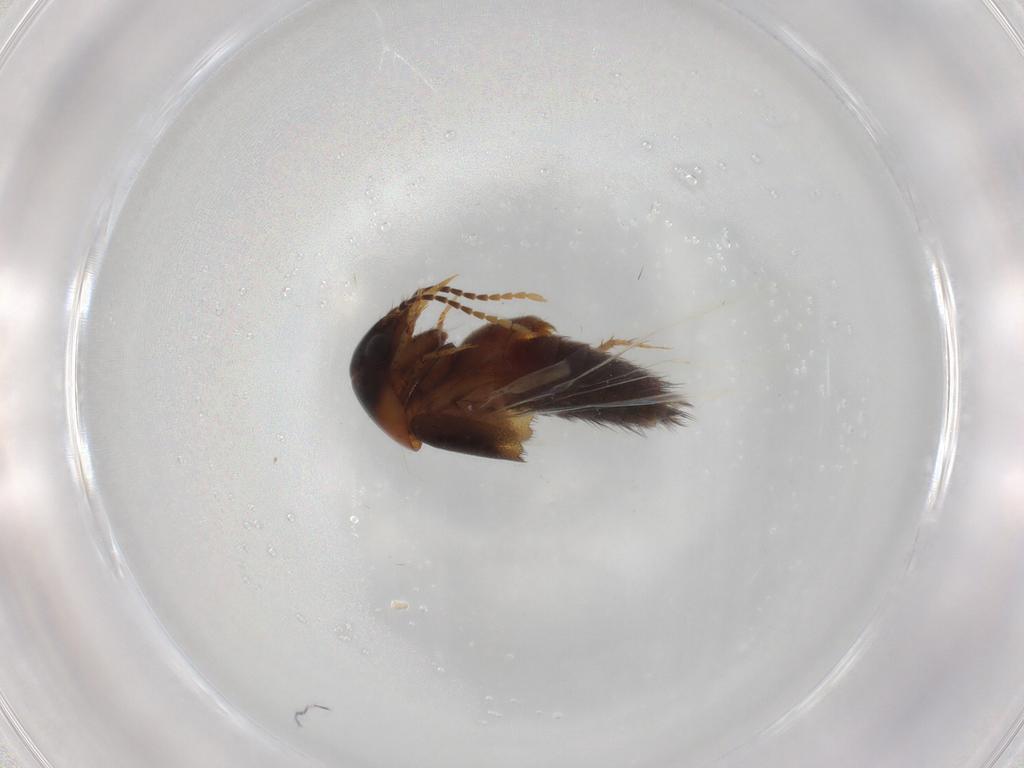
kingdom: Animalia
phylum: Arthropoda
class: Insecta
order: Coleoptera
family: Staphylinidae
